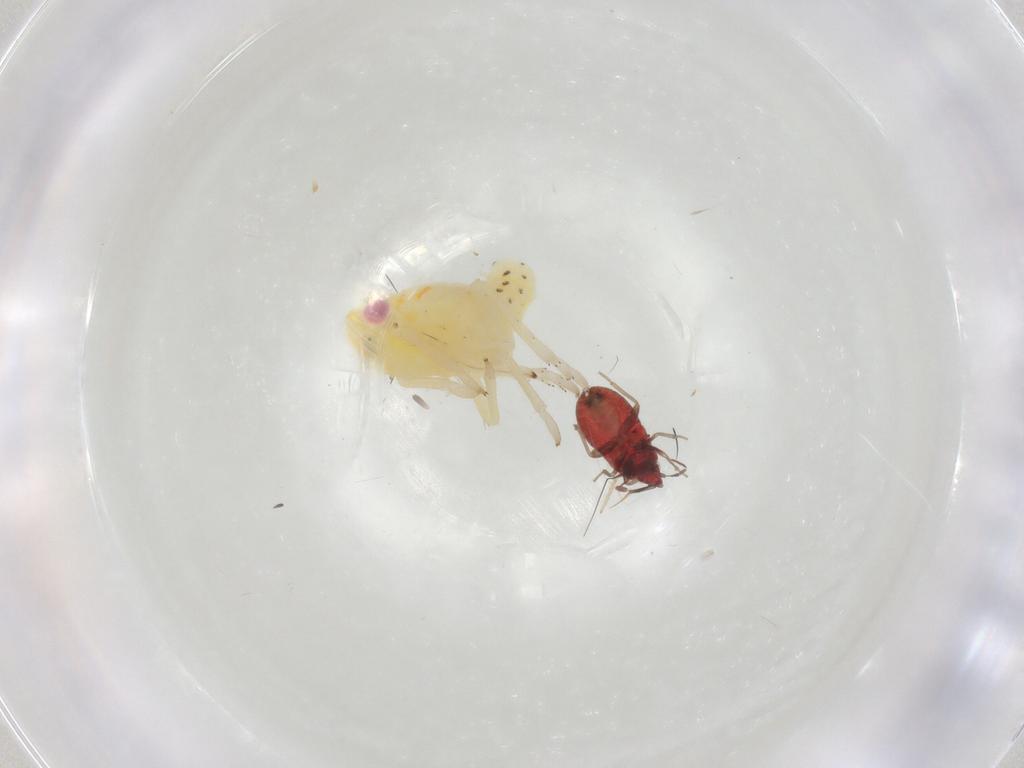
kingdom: Animalia
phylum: Arthropoda
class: Insecta
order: Hemiptera
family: Tropiduchidae
